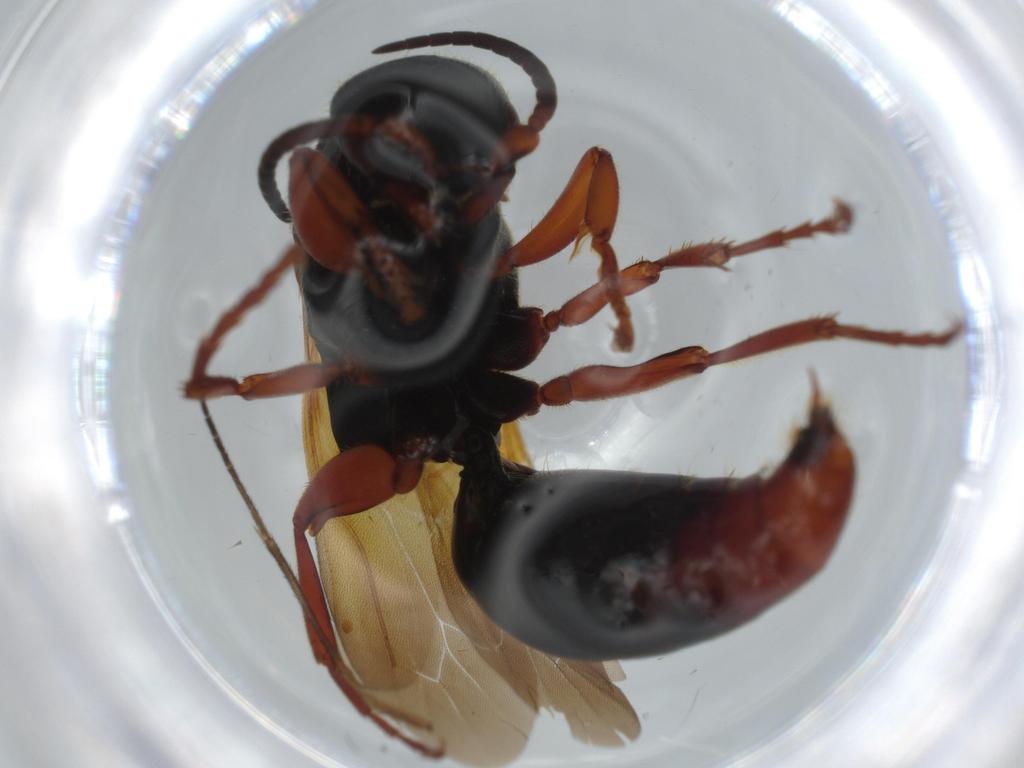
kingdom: Animalia
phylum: Arthropoda
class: Insecta
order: Hymenoptera
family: Bethylidae
